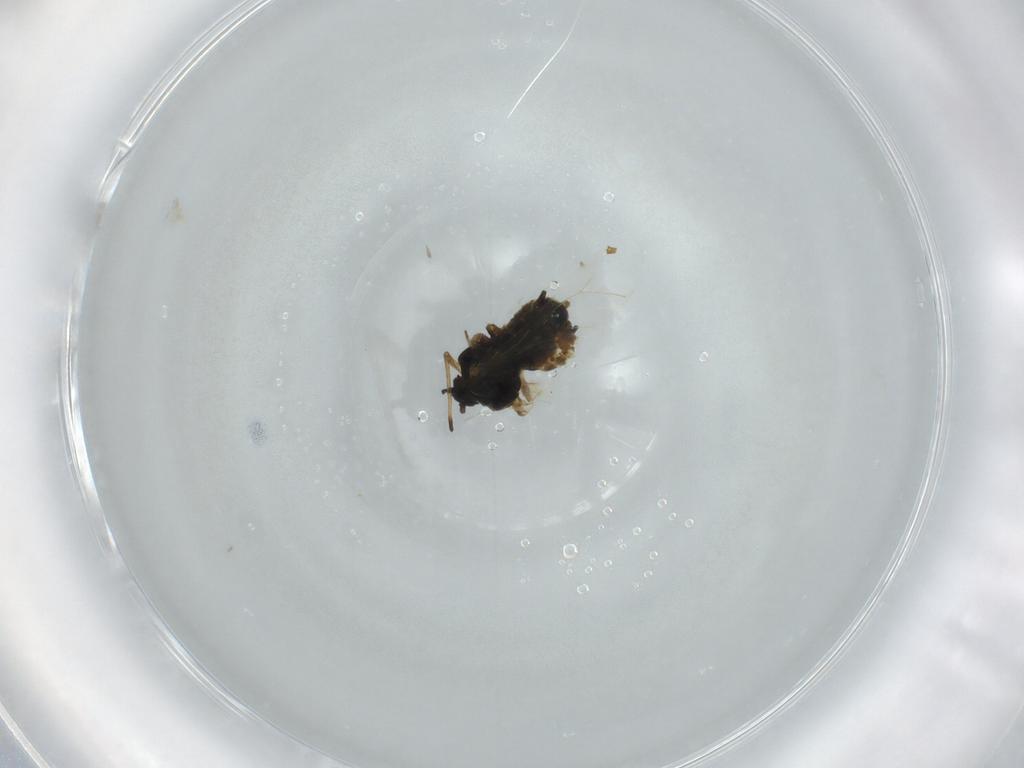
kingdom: Animalia
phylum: Arthropoda
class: Insecta
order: Hemiptera
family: Aphididae
